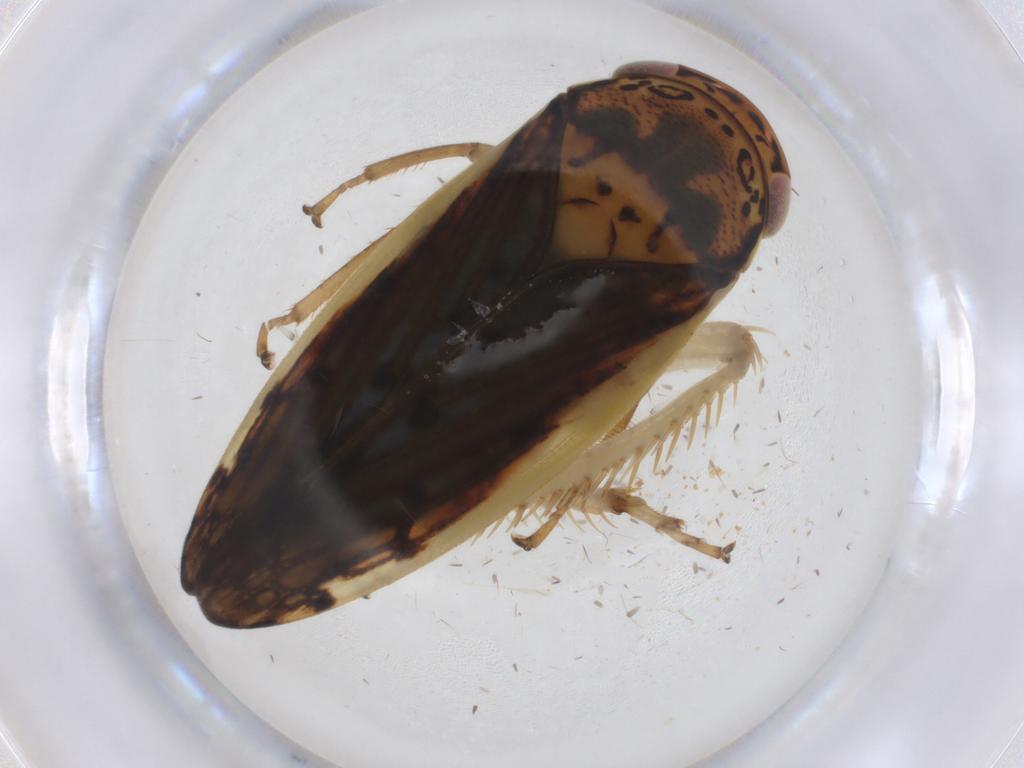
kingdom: Animalia
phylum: Arthropoda
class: Insecta
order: Hemiptera
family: Cicadellidae
